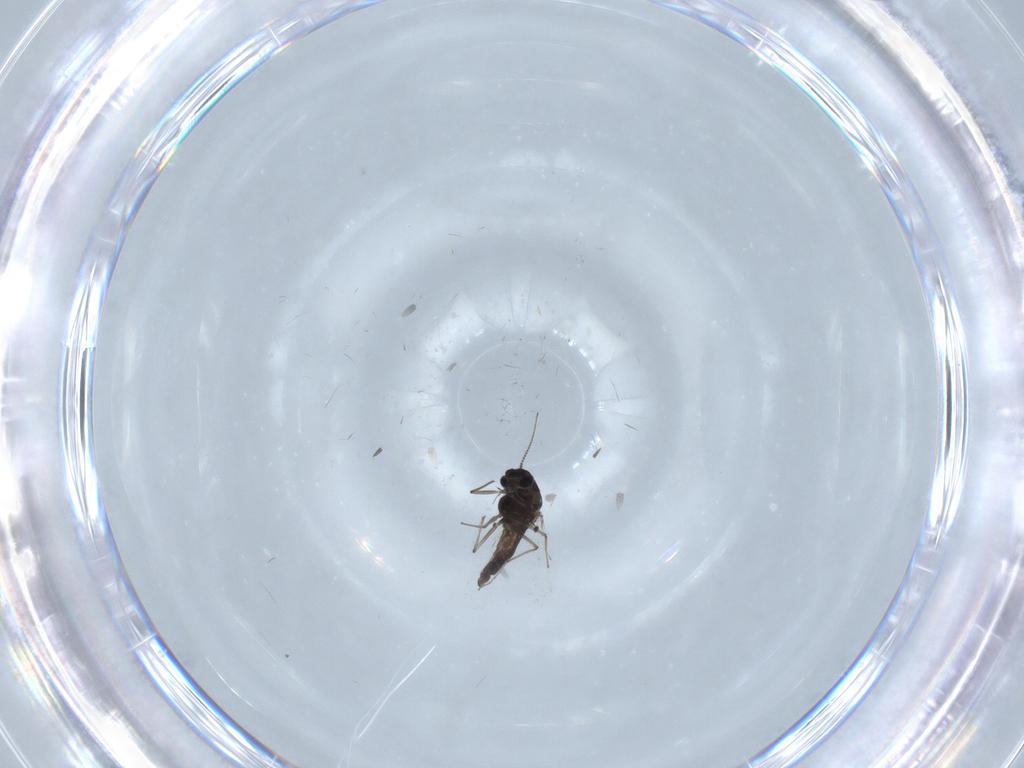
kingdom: Animalia
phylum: Arthropoda
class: Insecta
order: Diptera
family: Chironomidae
